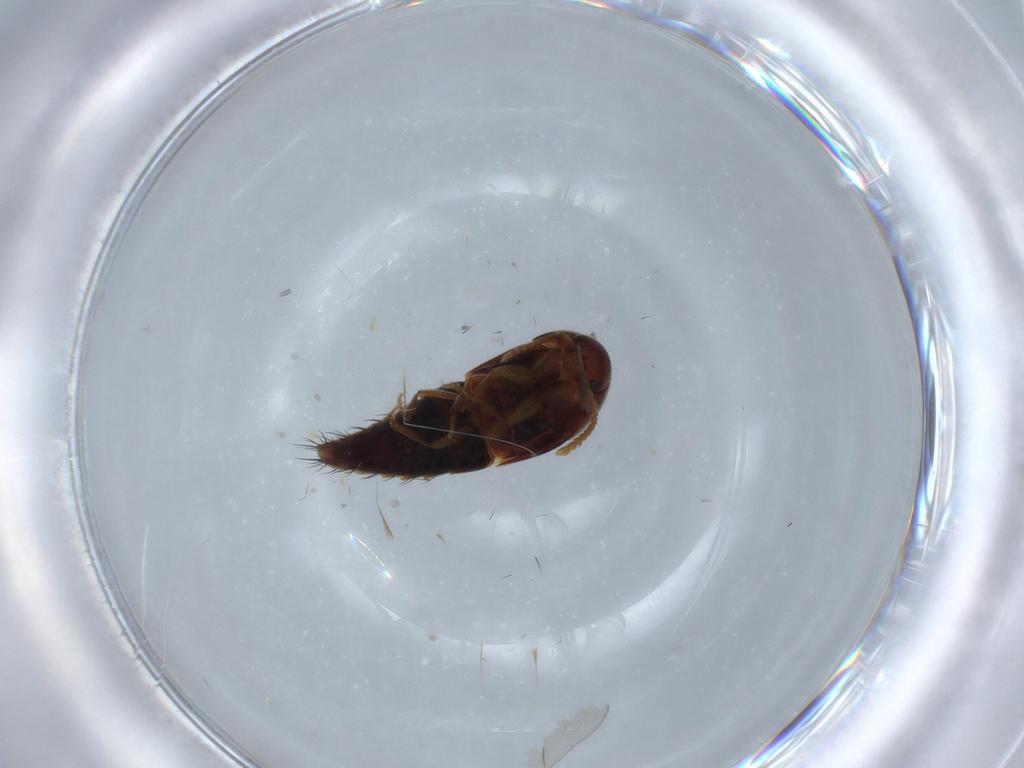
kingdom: Animalia
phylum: Arthropoda
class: Insecta
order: Coleoptera
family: Staphylinidae
